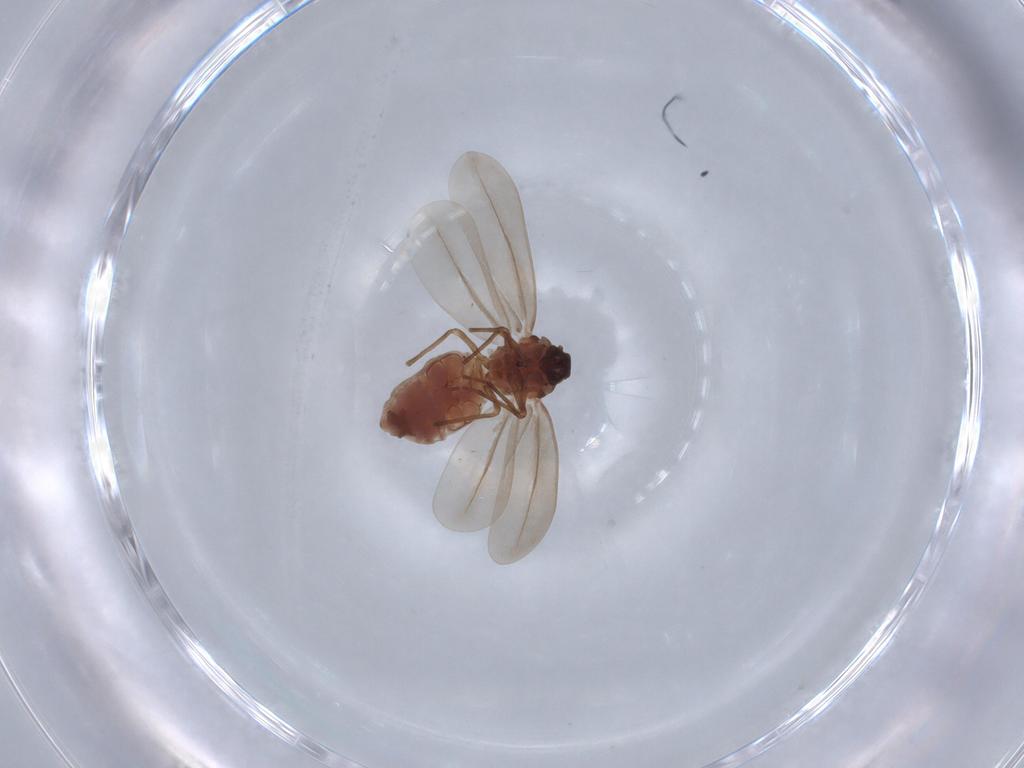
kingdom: Animalia
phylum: Arthropoda
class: Insecta
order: Hemiptera
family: Aleyrodidae
